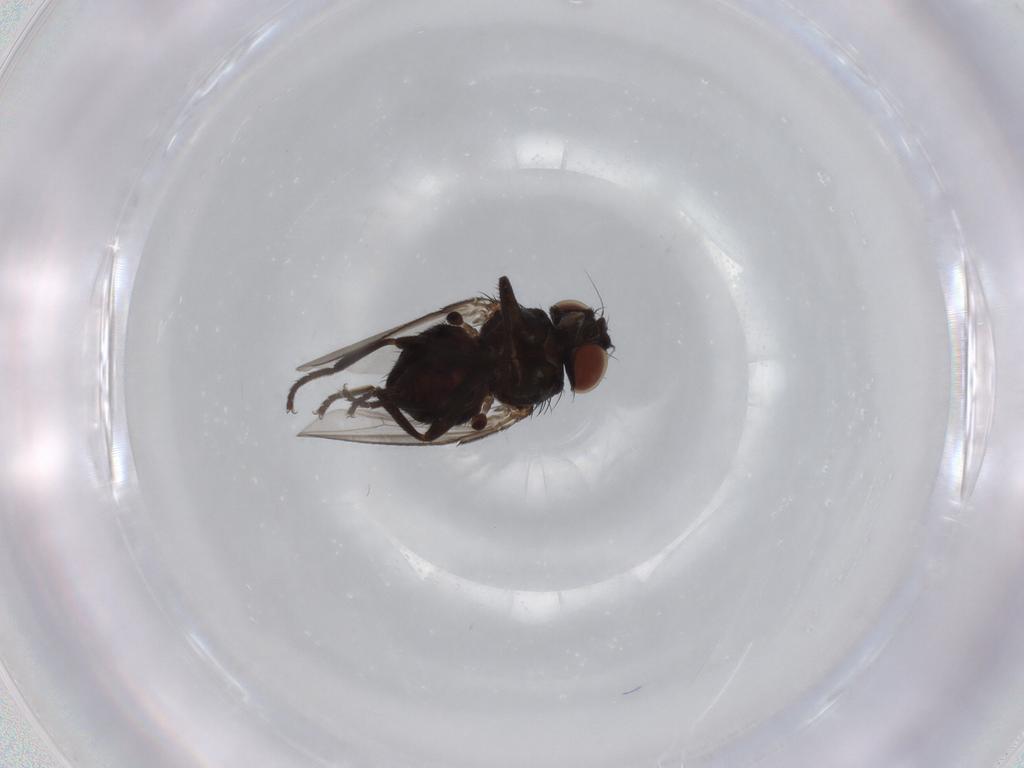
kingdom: Animalia
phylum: Arthropoda
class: Insecta
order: Diptera
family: Milichiidae
